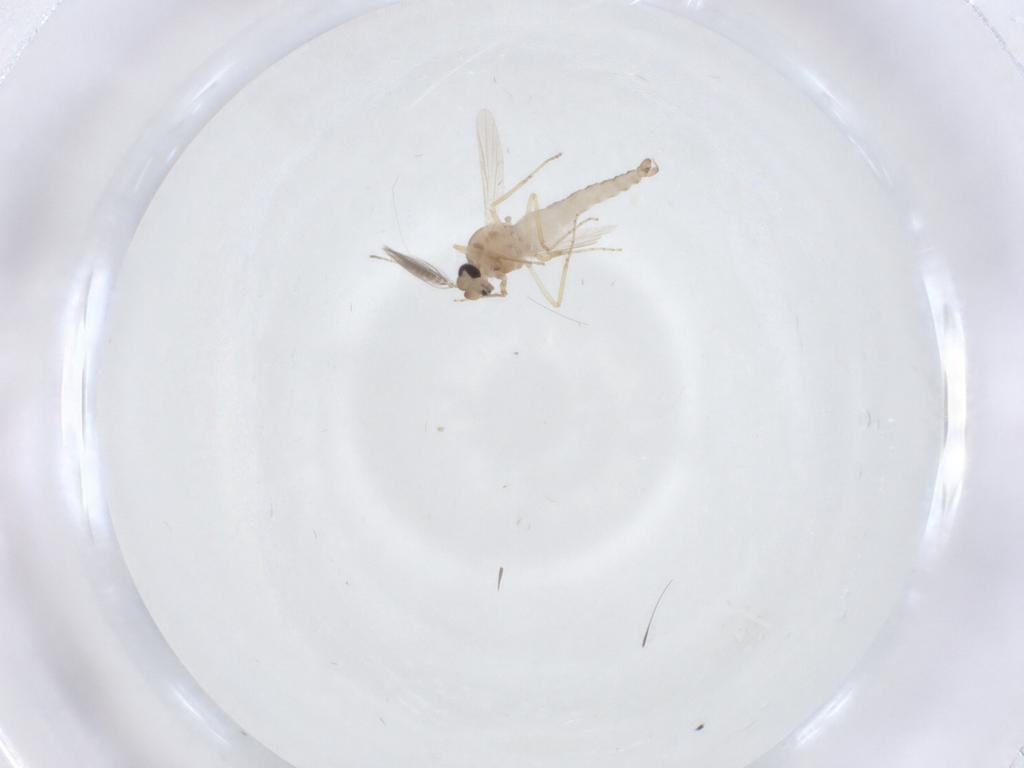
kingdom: Animalia
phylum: Arthropoda
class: Insecta
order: Diptera
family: Ceratopogonidae
